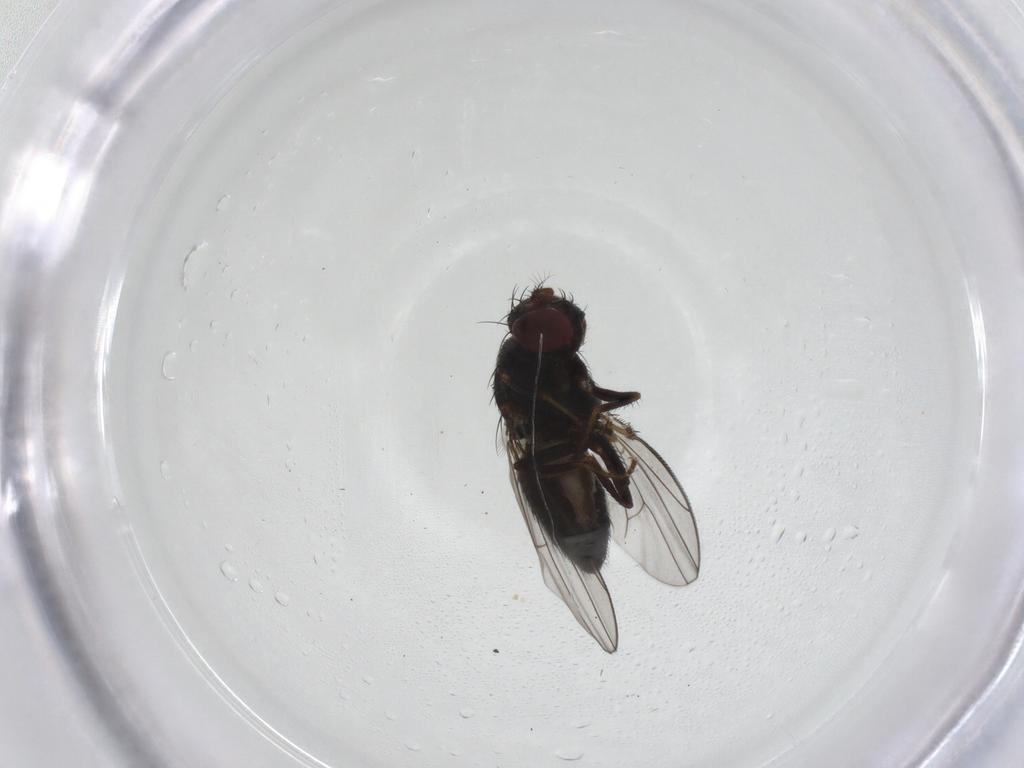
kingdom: Animalia
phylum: Arthropoda
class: Insecta
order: Diptera
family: Ephydridae
